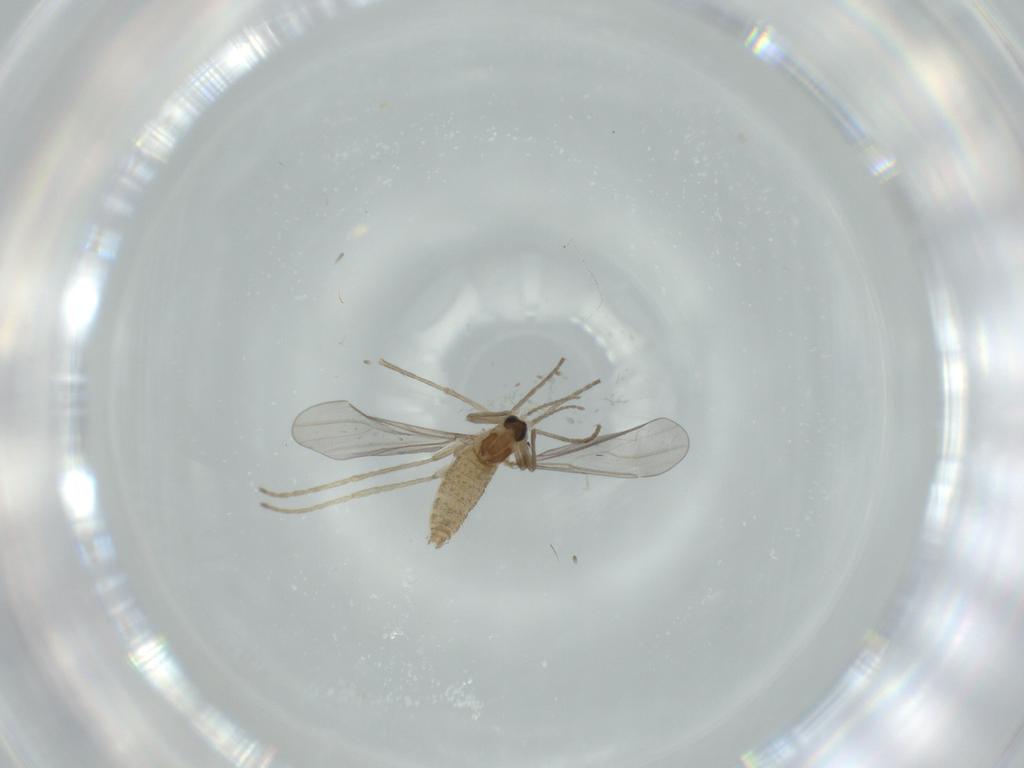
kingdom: Animalia
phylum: Arthropoda
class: Insecta
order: Diptera
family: Cecidomyiidae
